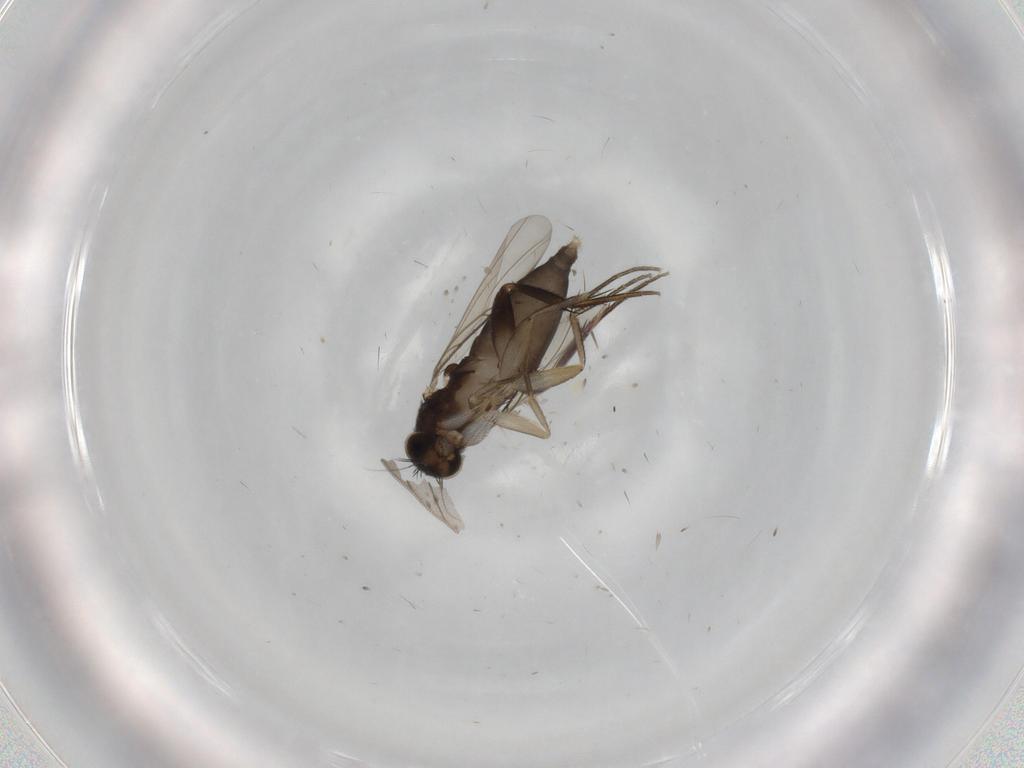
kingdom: Animalia
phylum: Arthropoda
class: Insecta
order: Diptera
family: Phoridae
